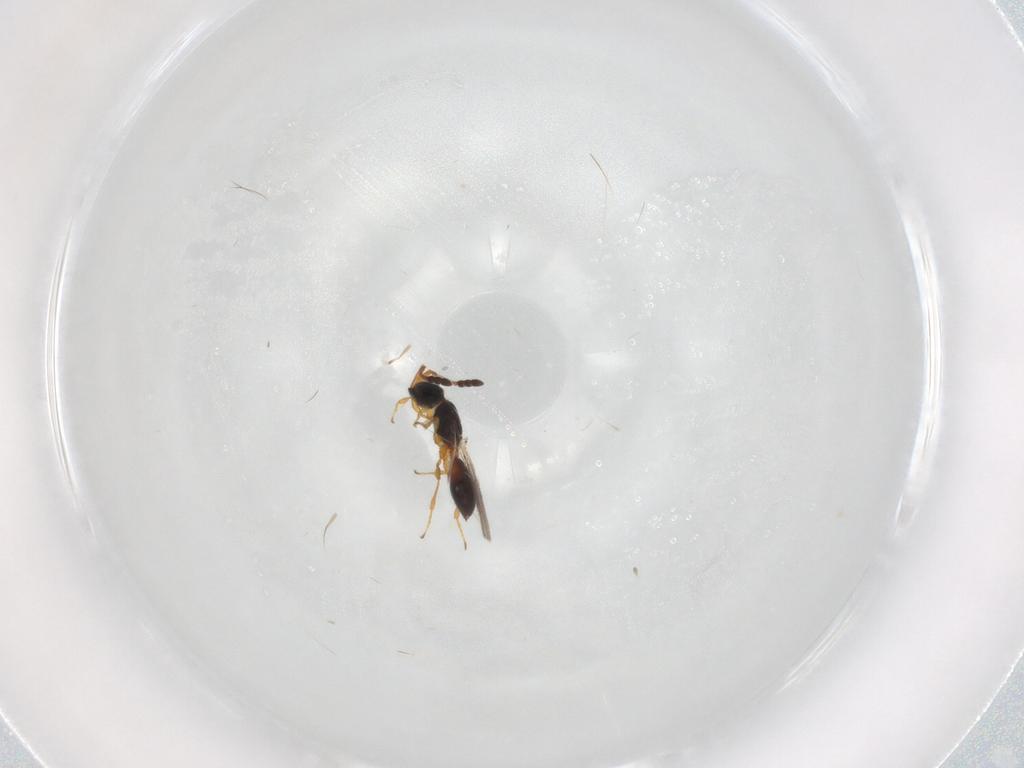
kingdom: Animalia
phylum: Arthropoda
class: Insecta
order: Hymenoptera
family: Diapriidae
